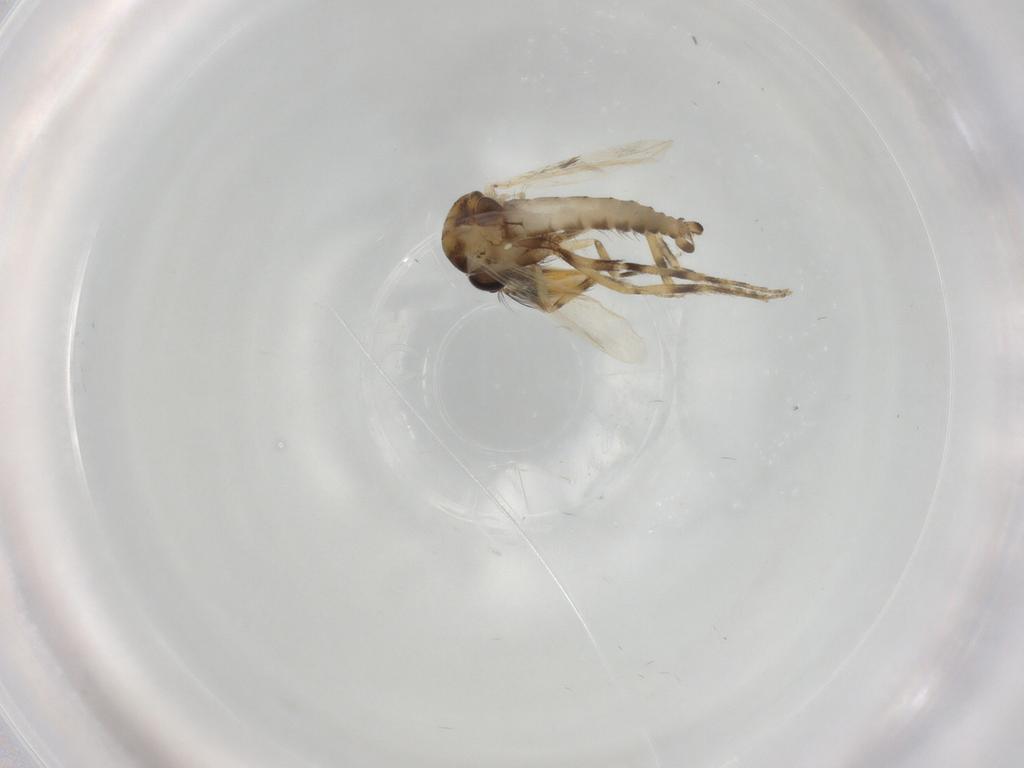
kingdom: Animalia
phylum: Arthropoda
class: Insecta
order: Diptera
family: Ceratopogonidae
